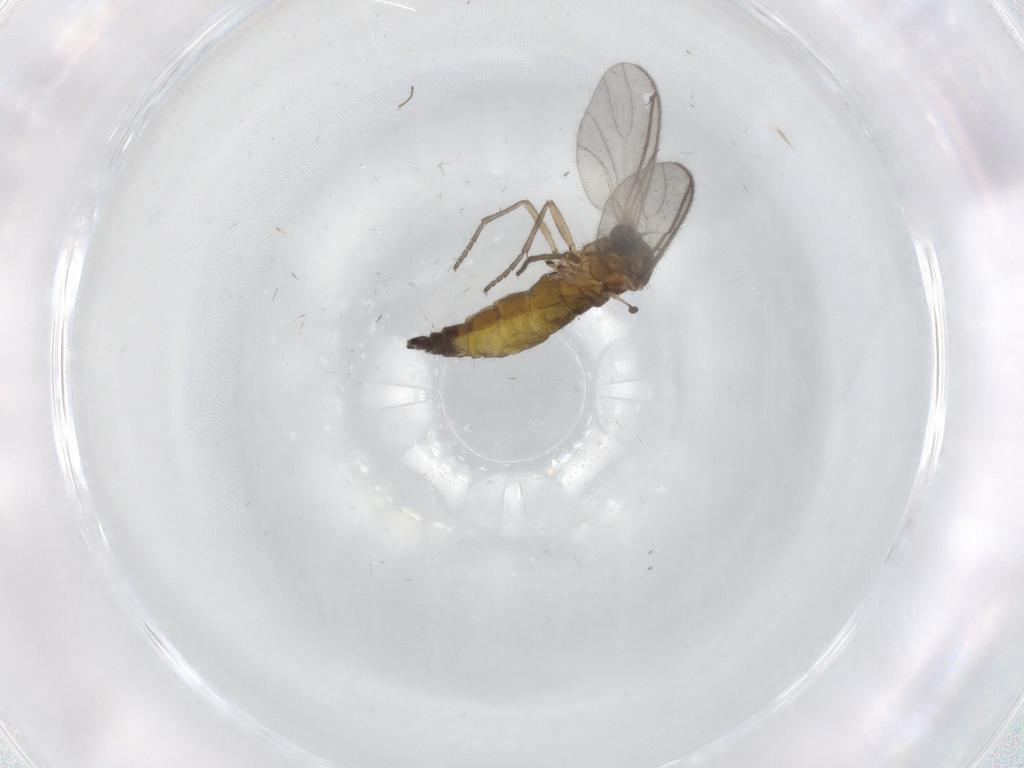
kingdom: Animalia
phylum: Arthropoda
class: Insecta
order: Diptera
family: Sciaridae
